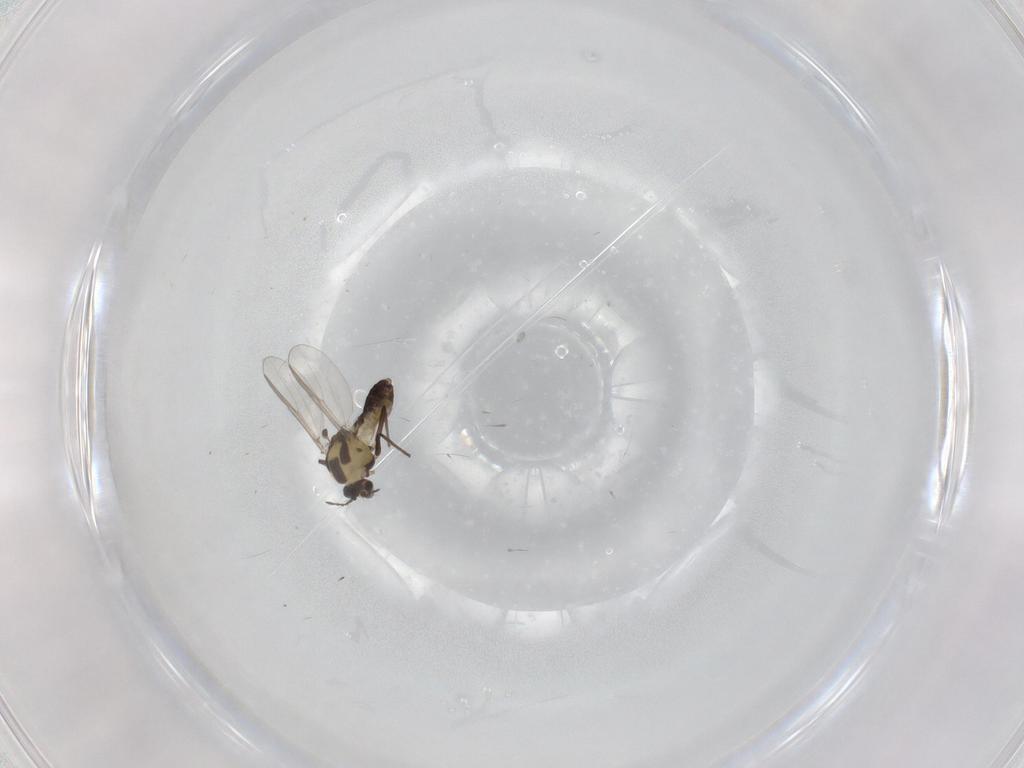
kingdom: Animalia
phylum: Arthropoda
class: Insecta
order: Diptera
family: Chironomidae
